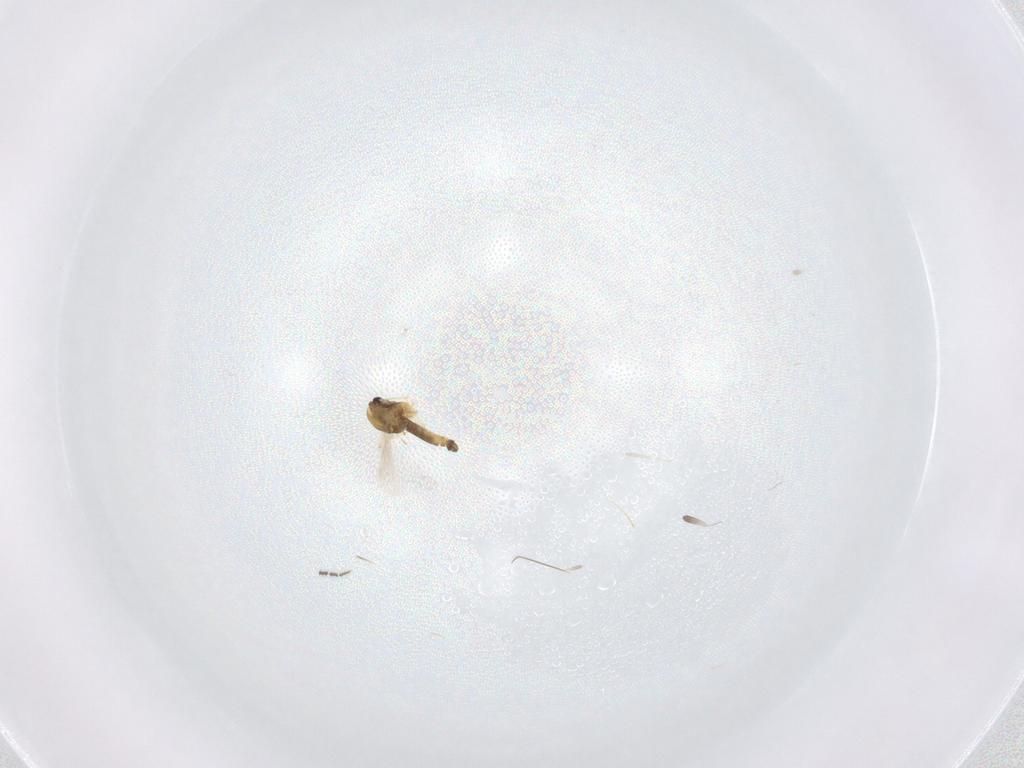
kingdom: Animalia
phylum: Arthropoda
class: Insecta
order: Diptera
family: Chironomidae
